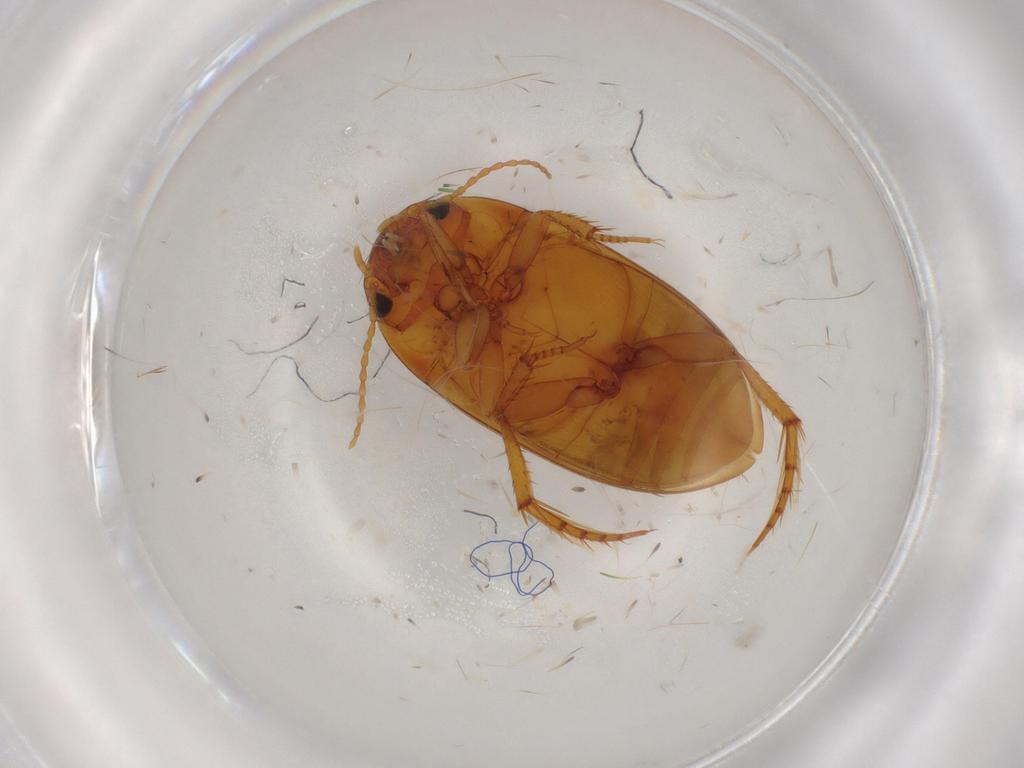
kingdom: Animalia
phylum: Arthropoda
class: Insecta
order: Coleoptera
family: Dytiscidae
